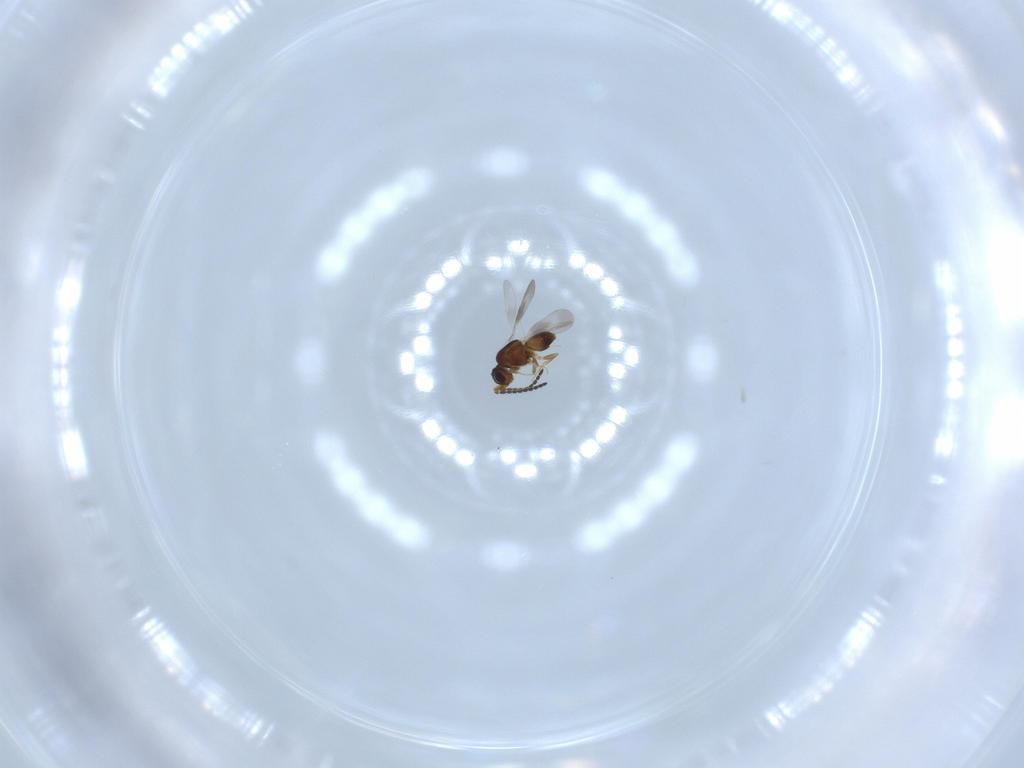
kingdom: Animalia
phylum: Arthropoda
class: Insecta
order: Hymenoptera
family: Ceraphronidae
